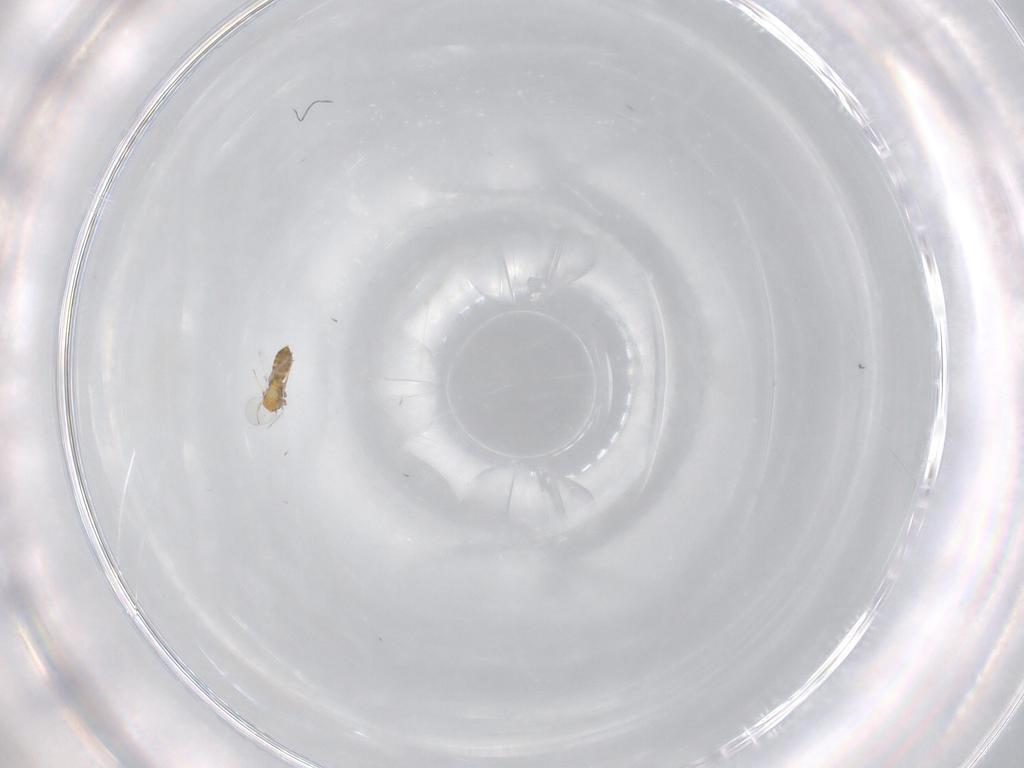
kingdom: Animalia
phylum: Arthropoda
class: Insecta
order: Hymenoptera
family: Trichogrammatidae
